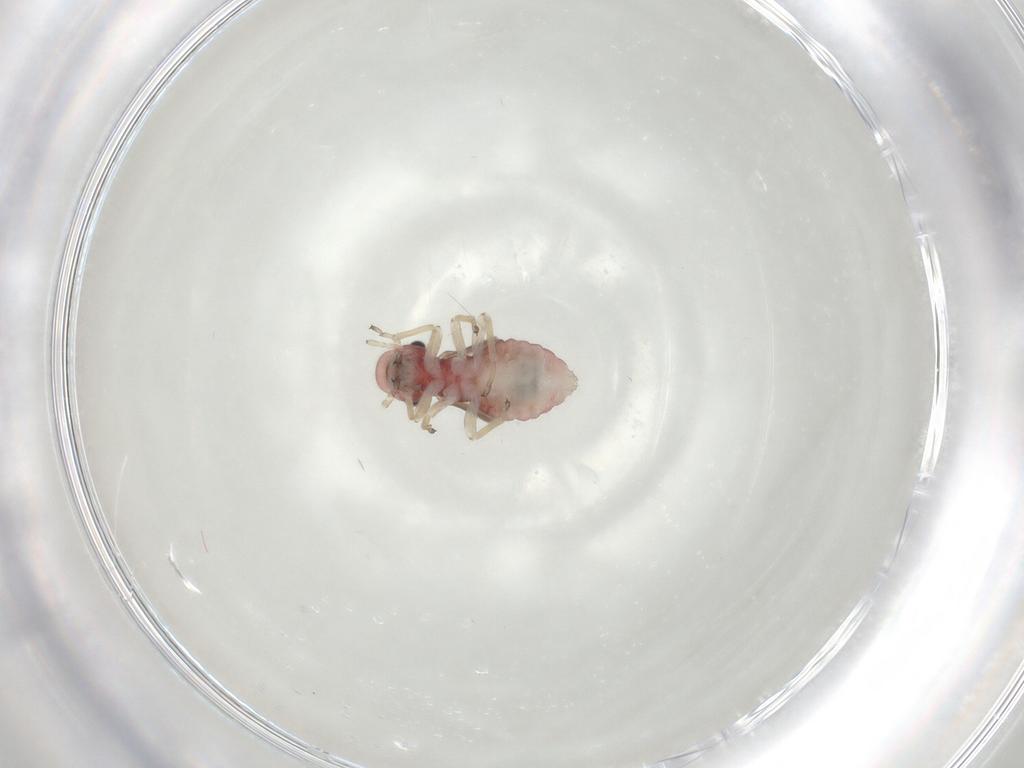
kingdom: Animalia
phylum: Arthropoda
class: Insecta
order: Psocodea
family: Caeciliusidae
